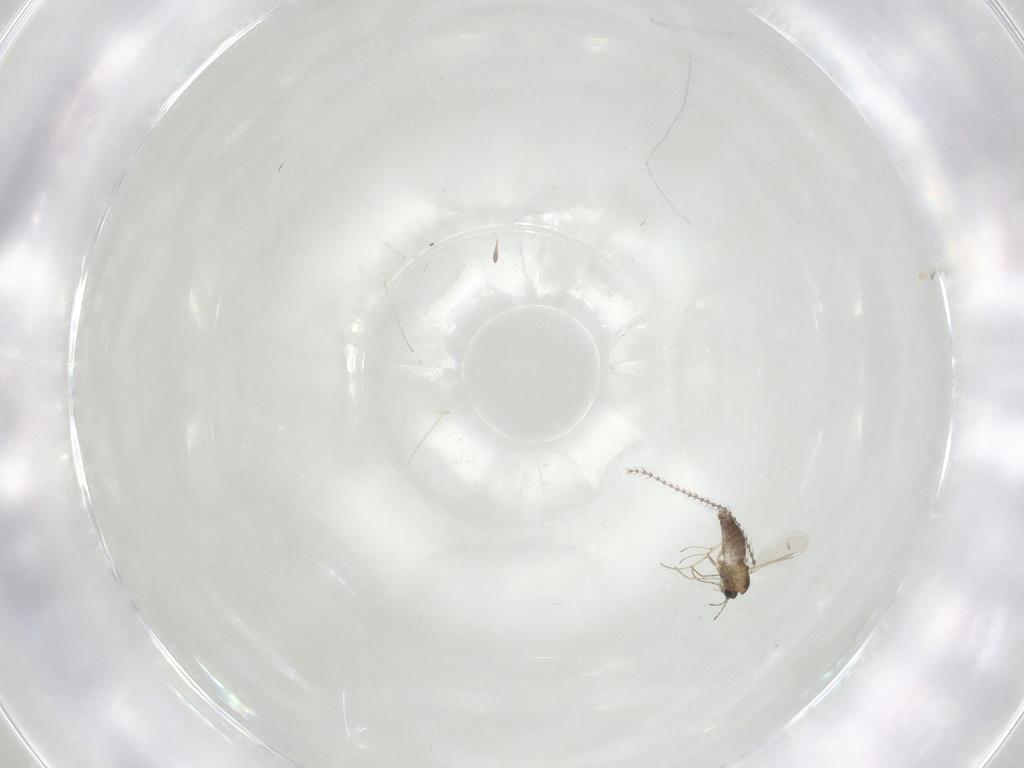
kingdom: Animalia
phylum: Arthropoda
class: Insecta
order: Diptera
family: Chironomidae
